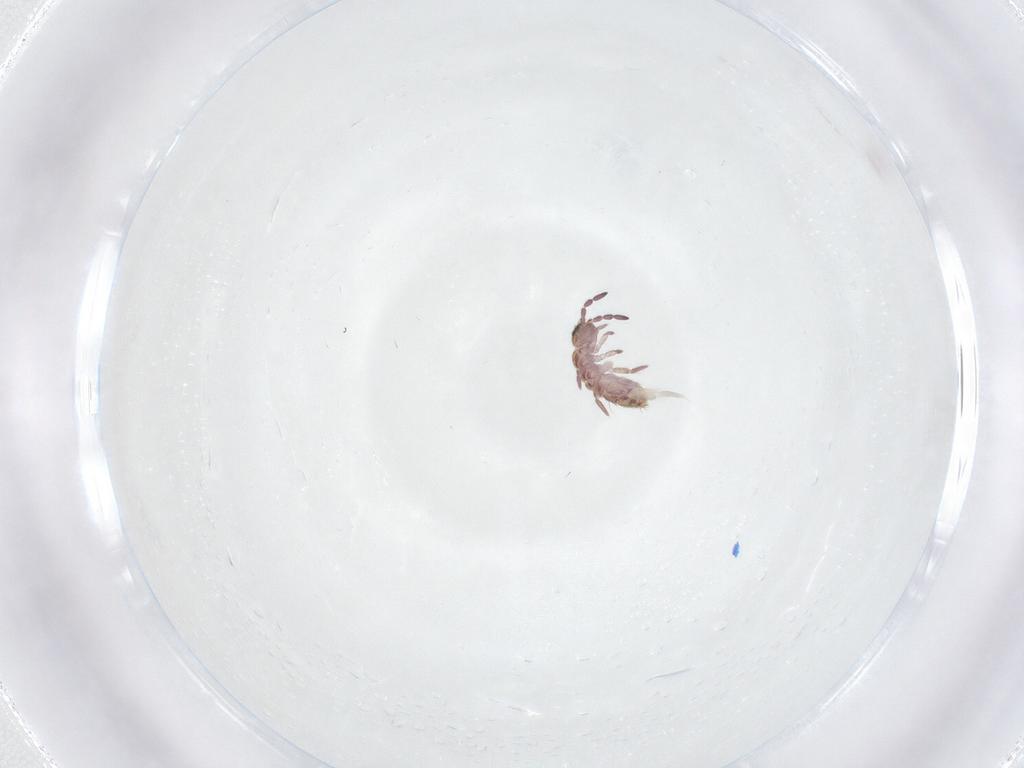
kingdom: Animalia
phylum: Arthropoda
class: Collembola
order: Entomobryomorpha
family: Isotomidae
